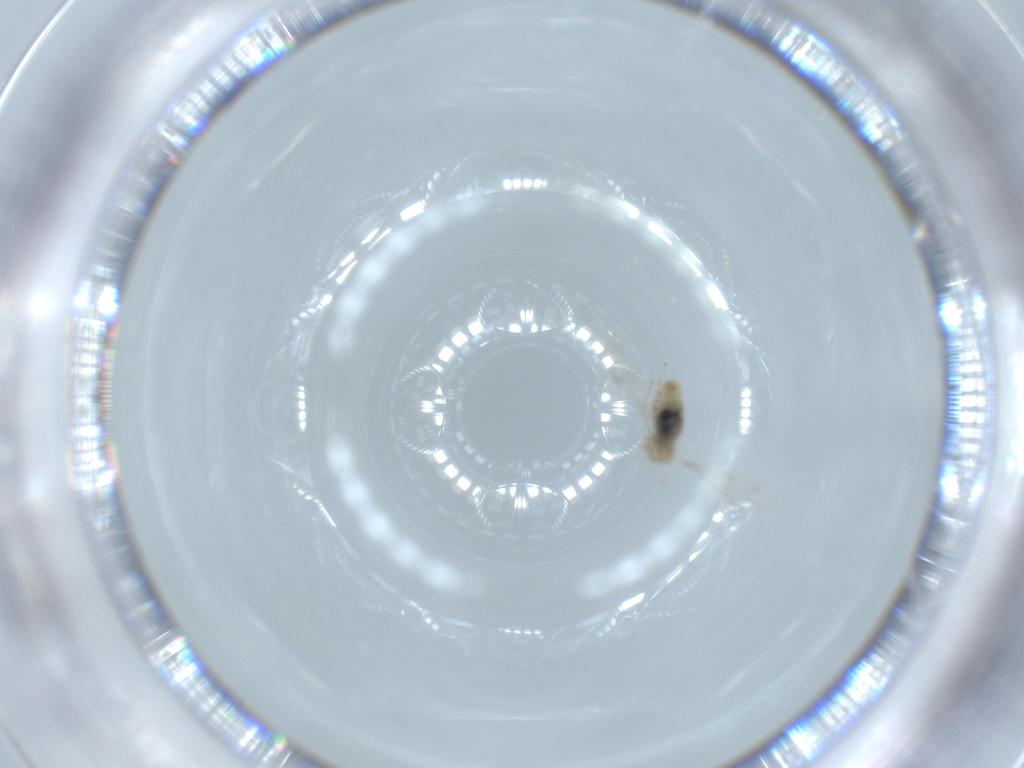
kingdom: Animalia
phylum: Arthropoda
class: Insecta
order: Diptera
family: Cecidomyiidae
